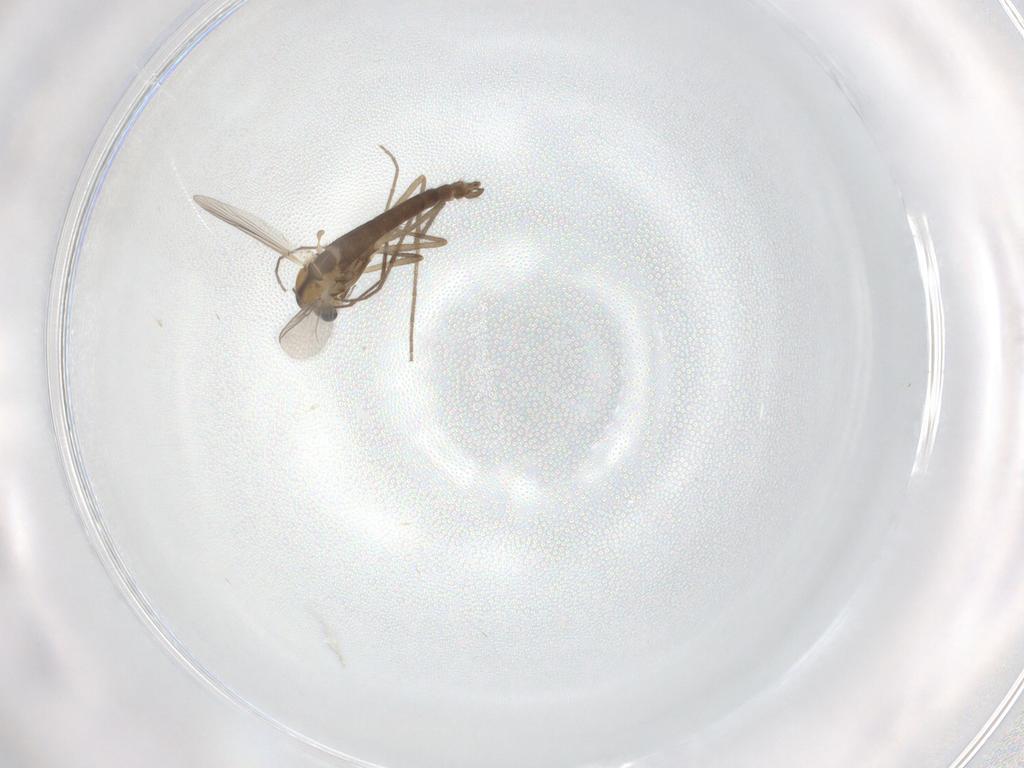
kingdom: Animalia
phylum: Arthropoda
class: Insecta
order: Diptera
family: Chironomidae
